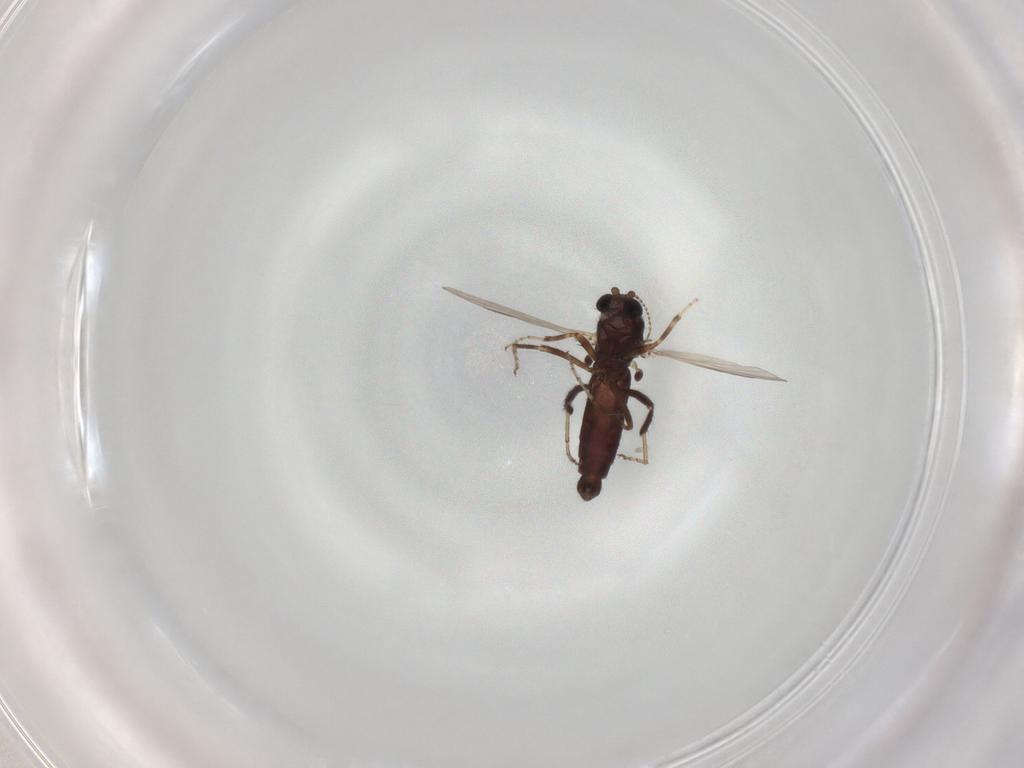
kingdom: Animalia
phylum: Arthropoda
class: Insecta
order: Diptera
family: Ceratopogonidae
